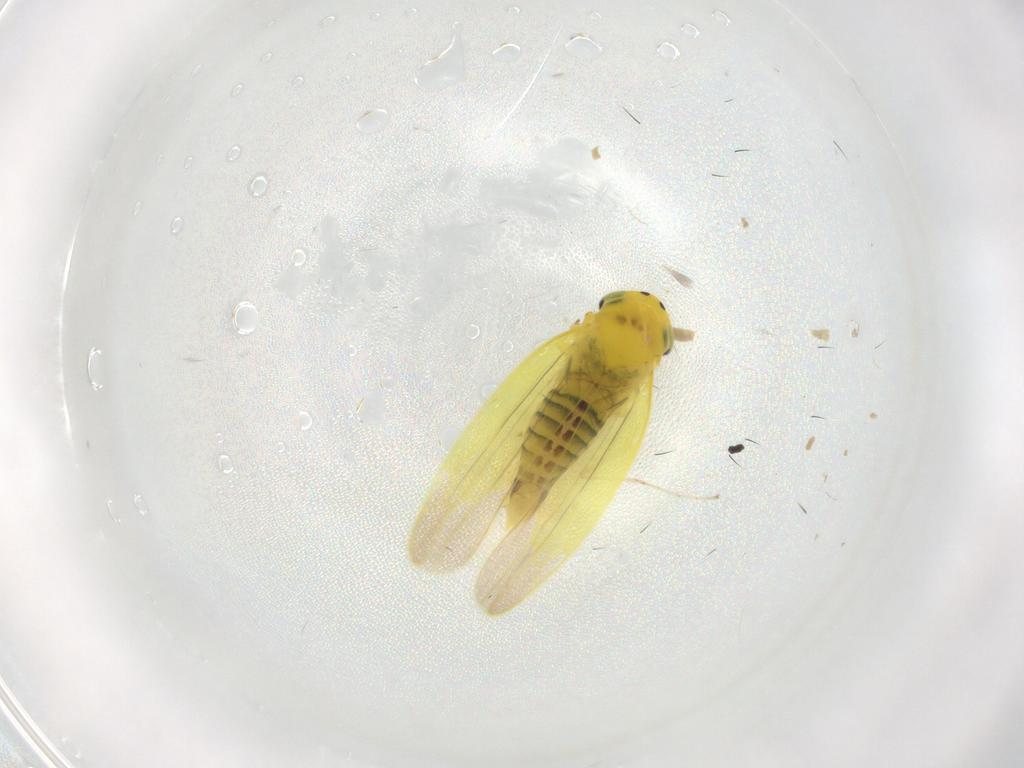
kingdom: Animalia
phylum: Arthropoda
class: Insecta
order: Hemiptera
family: Cicadellidae
